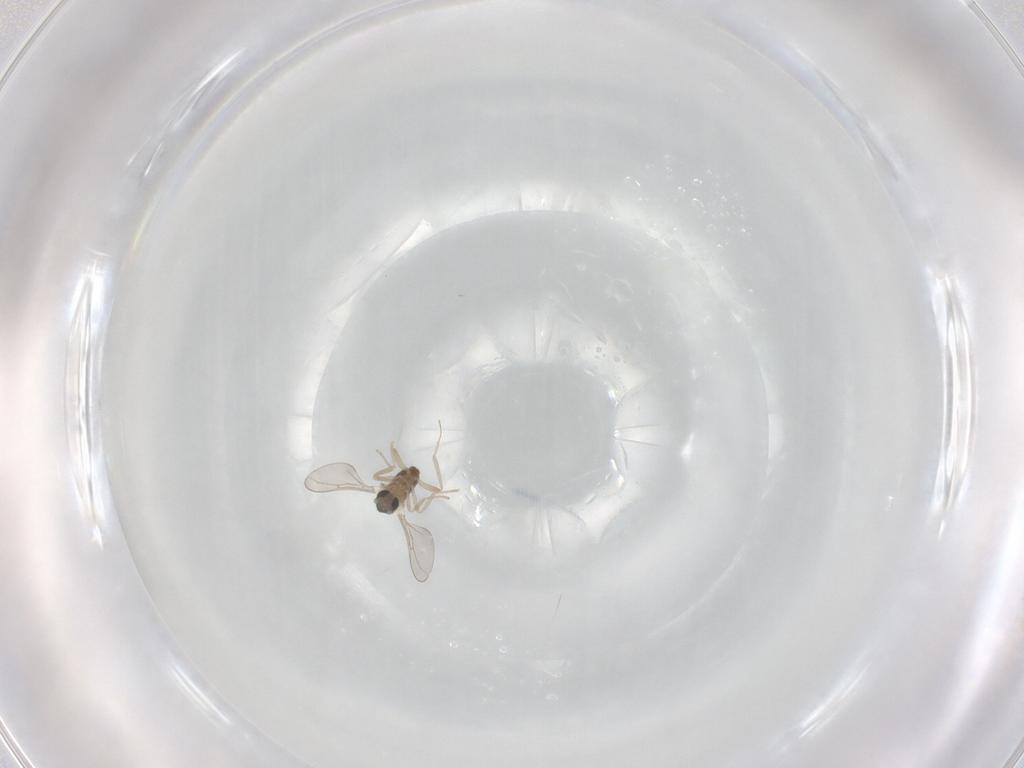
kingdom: Animalia
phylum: Arthropoda
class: Insecta
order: Diptera
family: Cecidomyiidae
